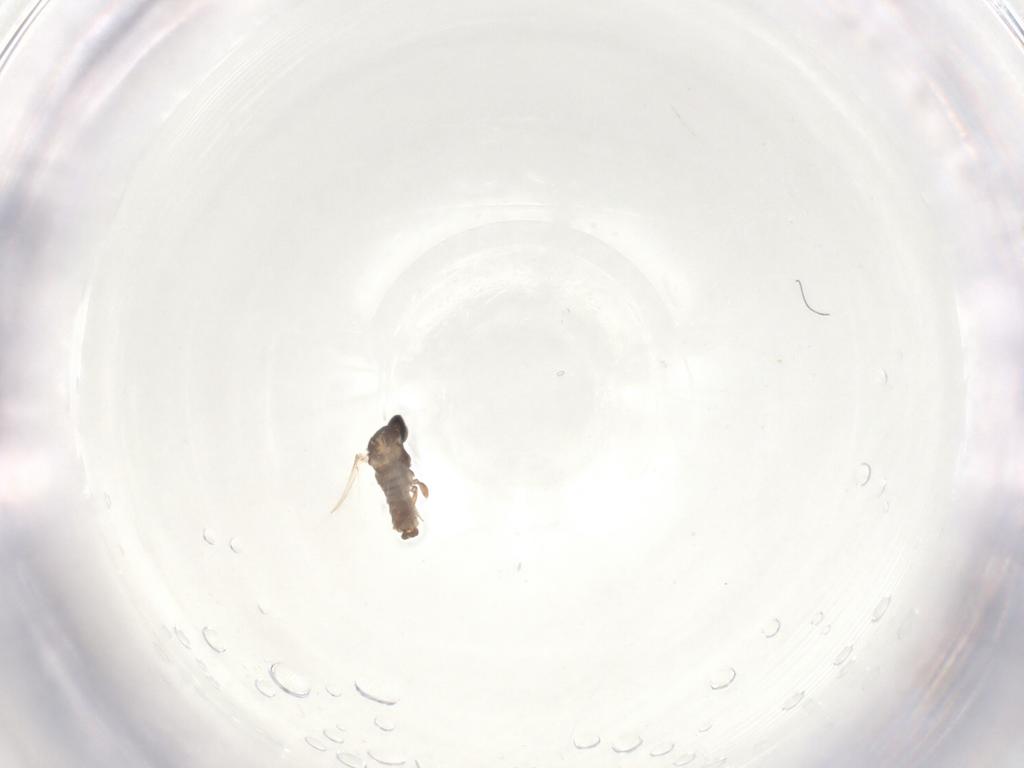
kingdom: Animalia
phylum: Arthropoda
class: Insecta
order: Diptera
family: Cecidomyiidae
